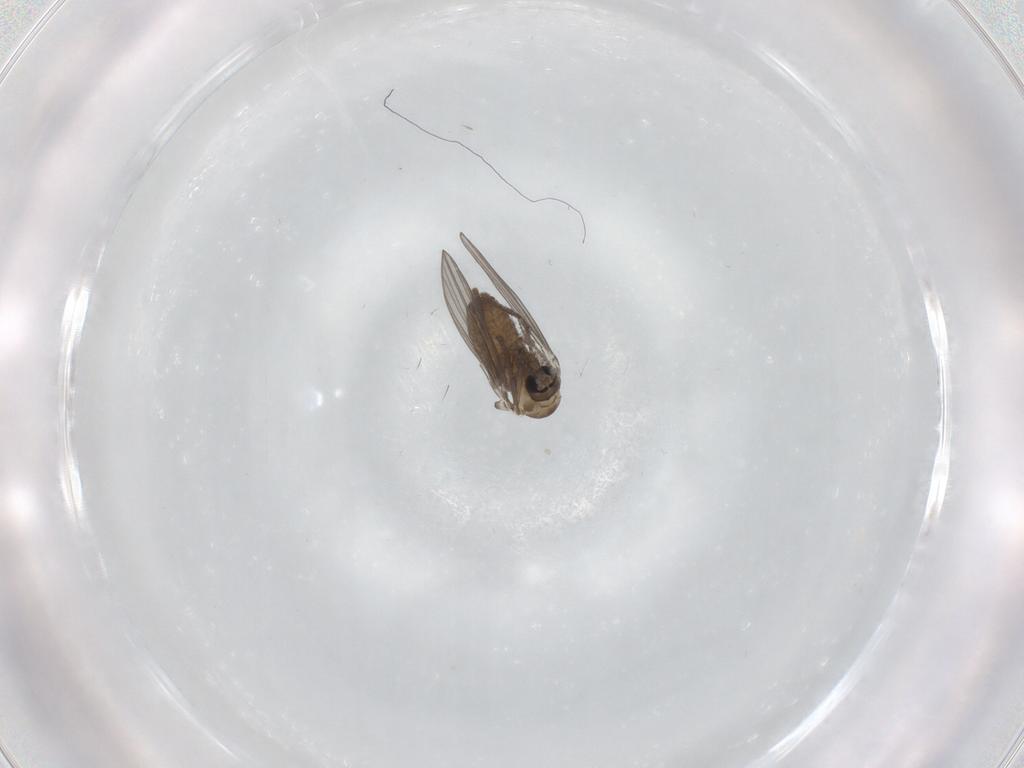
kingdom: Animalia
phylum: Arthropoda
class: Insecta
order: Diptera
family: Psychodidae
